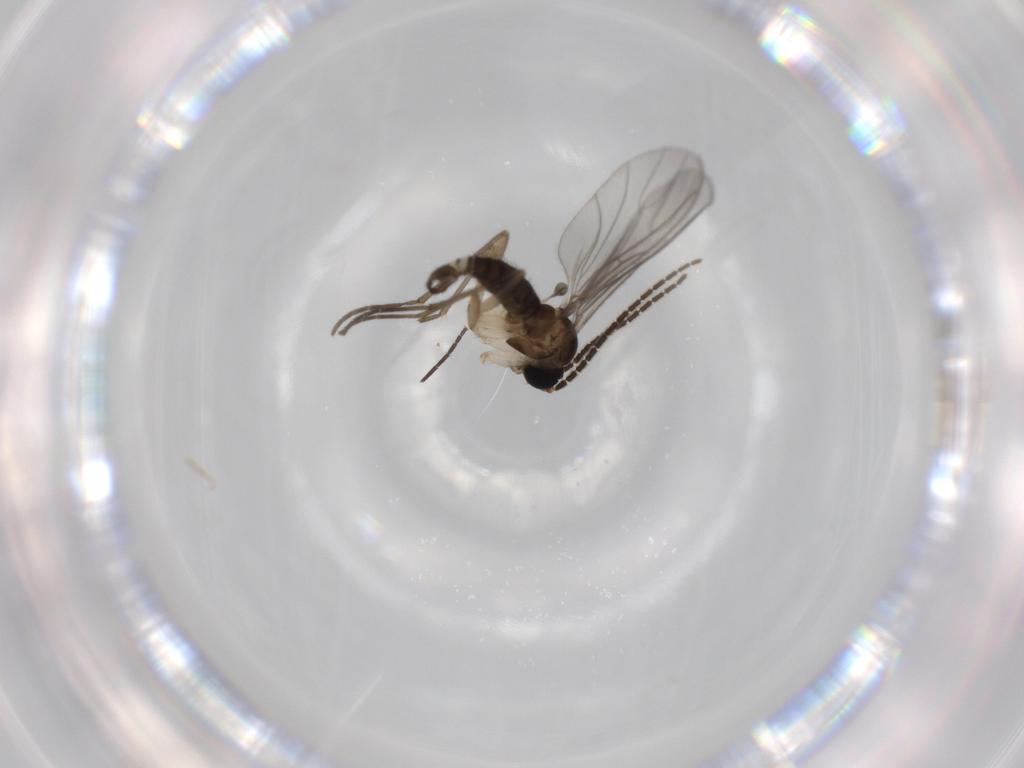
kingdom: Animalia
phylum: Arthropoda
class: Insecta
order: Diptera
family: Sciaridae
